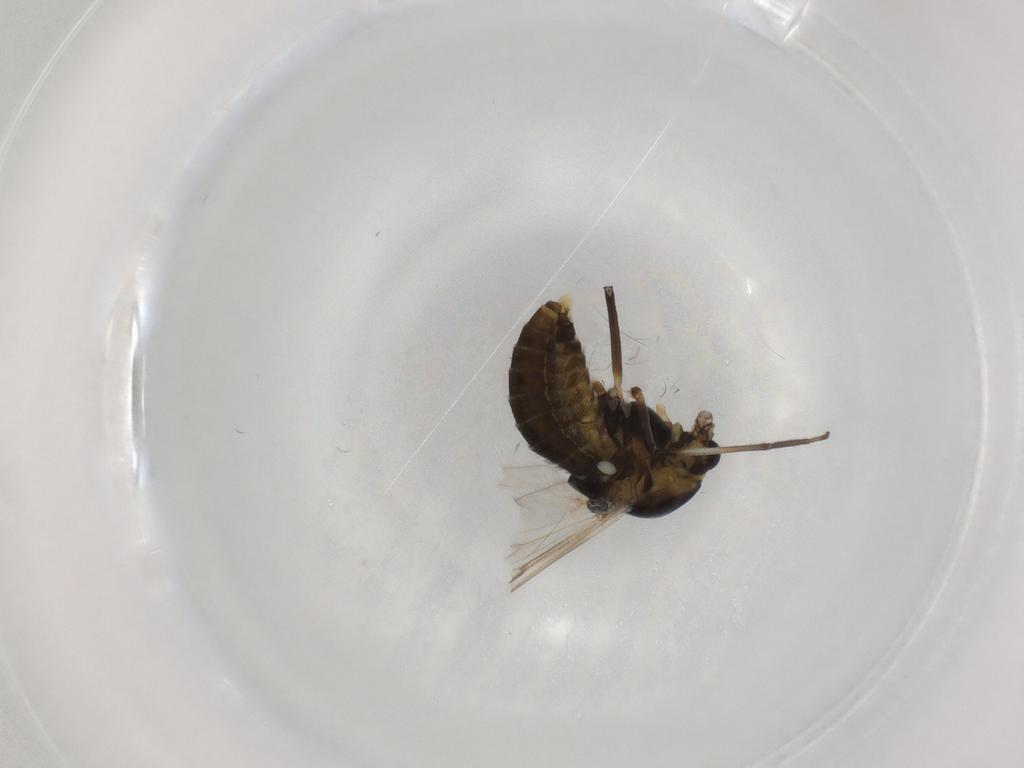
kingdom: Animalia
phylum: Arthropoda
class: Insecta
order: Diptera
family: Chironomidae
